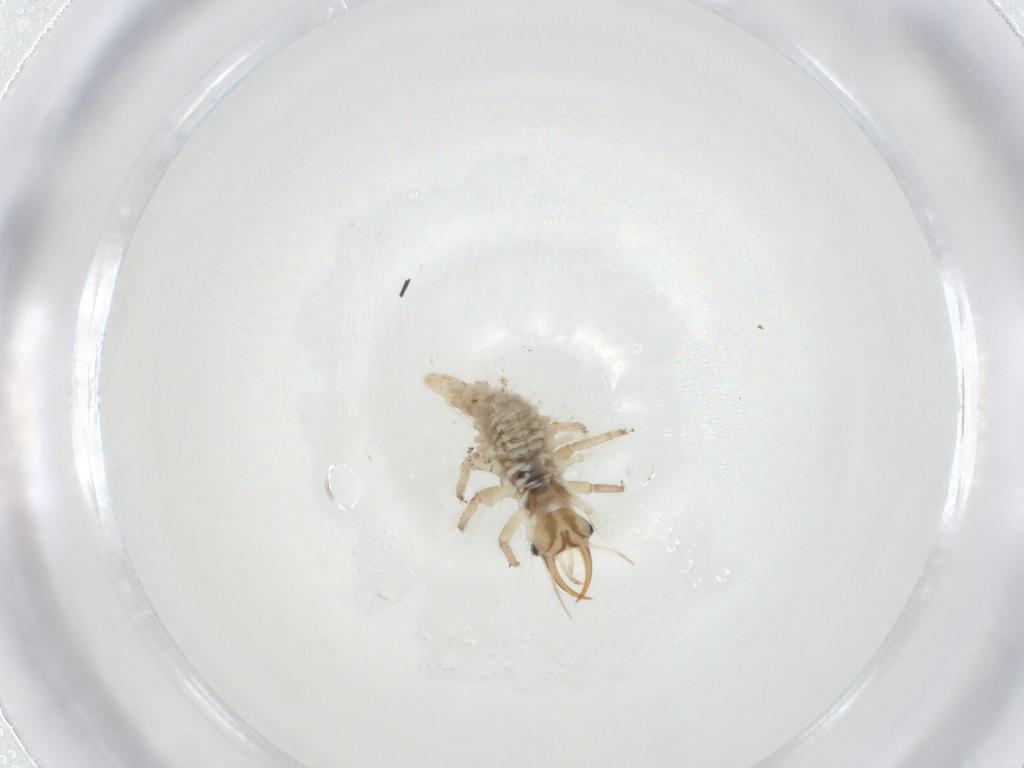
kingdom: Animalia
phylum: Arthropoda
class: Insecta
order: Neuroptera
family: Chrysopidae
